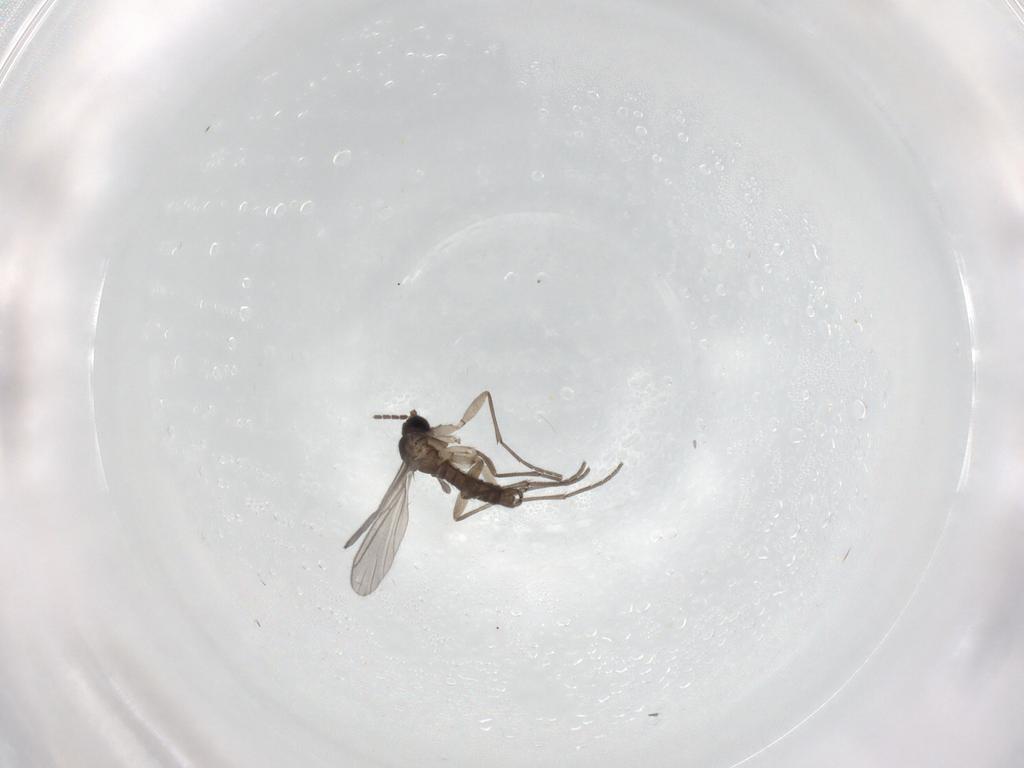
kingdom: Animalia
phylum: Arthropoda
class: Insecta
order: Diptera
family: Sciaridae
